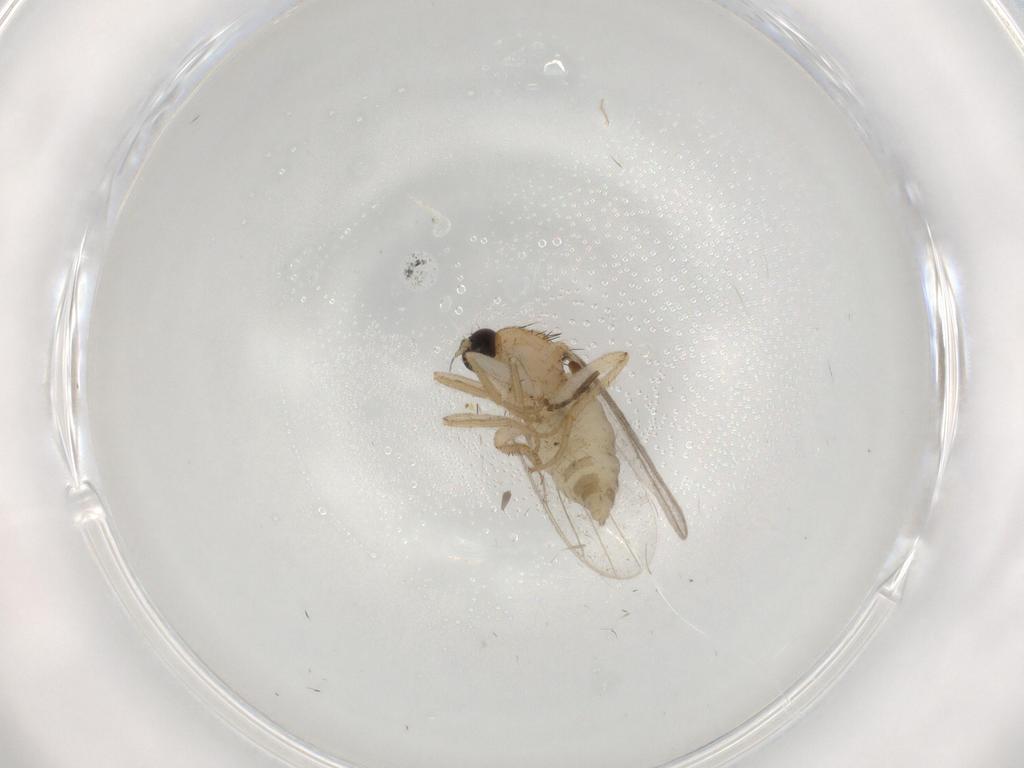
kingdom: Animalia
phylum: Arthropoda
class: Insecta
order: Diptera
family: Hybotidae
